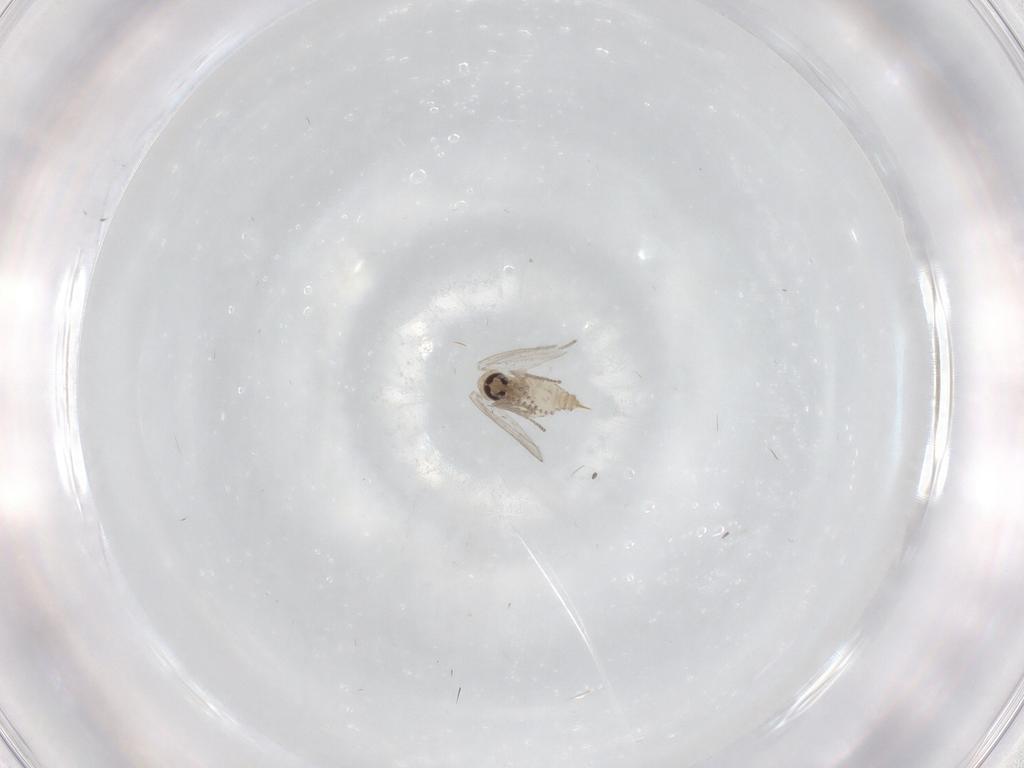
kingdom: Animalia
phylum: Arthropoda
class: Insecta
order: Diptera
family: Psychodidae
